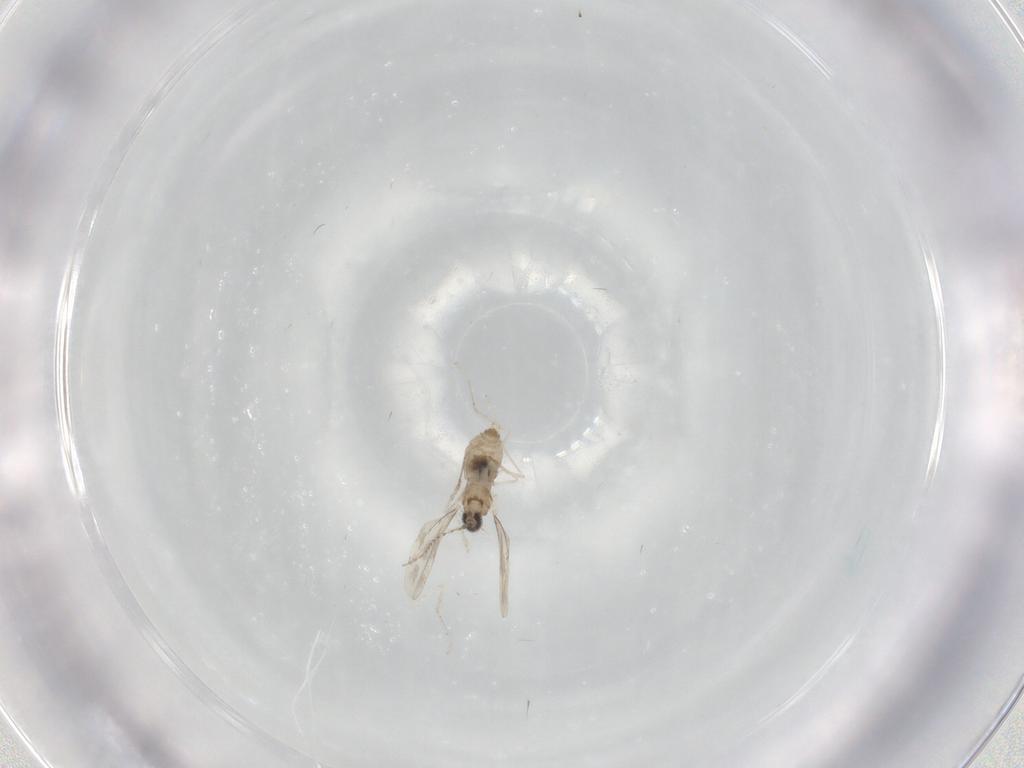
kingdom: Animalia
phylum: Arthropoda
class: Insecta
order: Diptera
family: Cecidomyiidae
